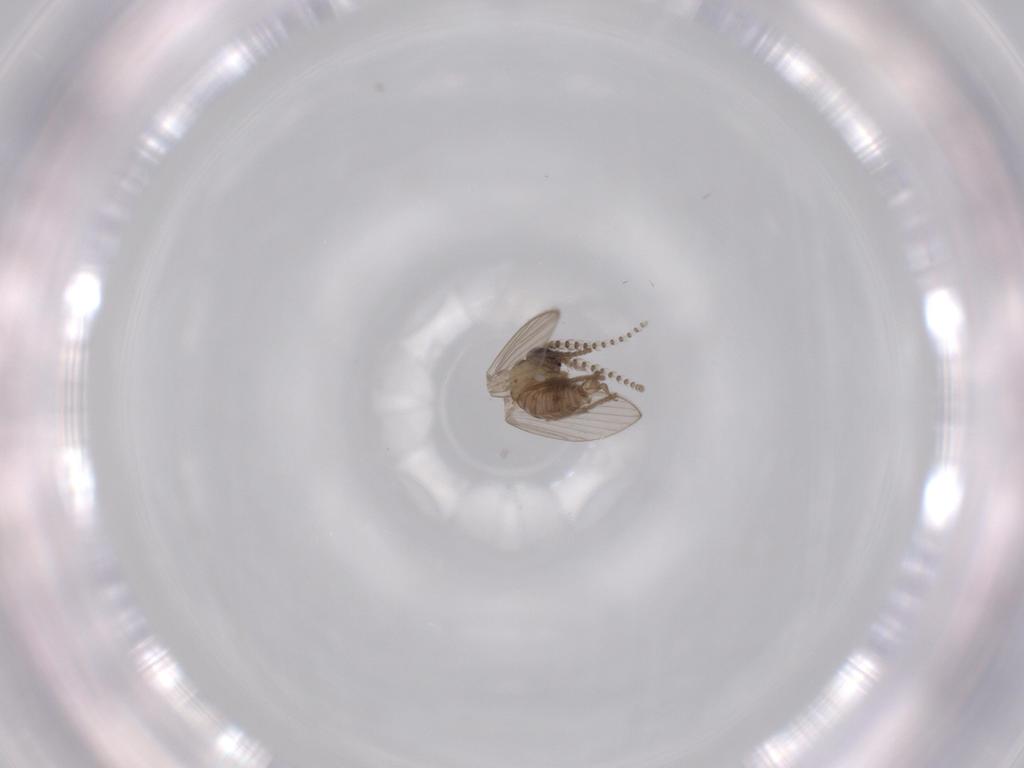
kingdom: Animalia
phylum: Arthropoda
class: Insecta
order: Diptera
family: Psychodidae
